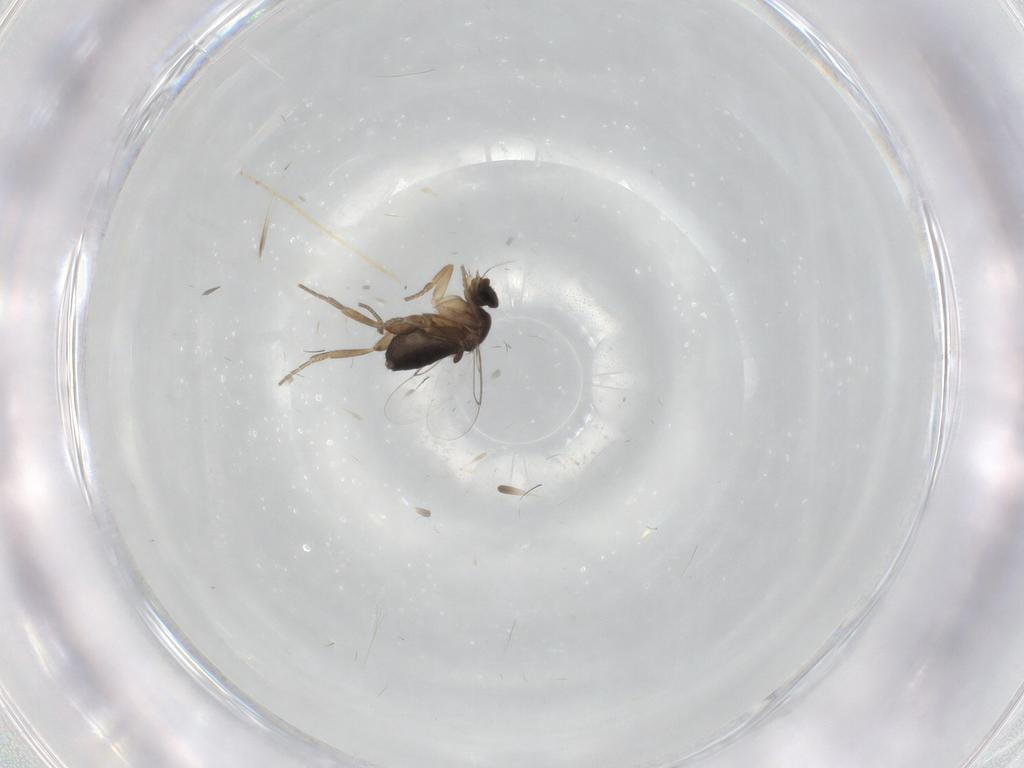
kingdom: Animalia
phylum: Arthropoda
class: Insecta
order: Diptera
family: Phoridae
